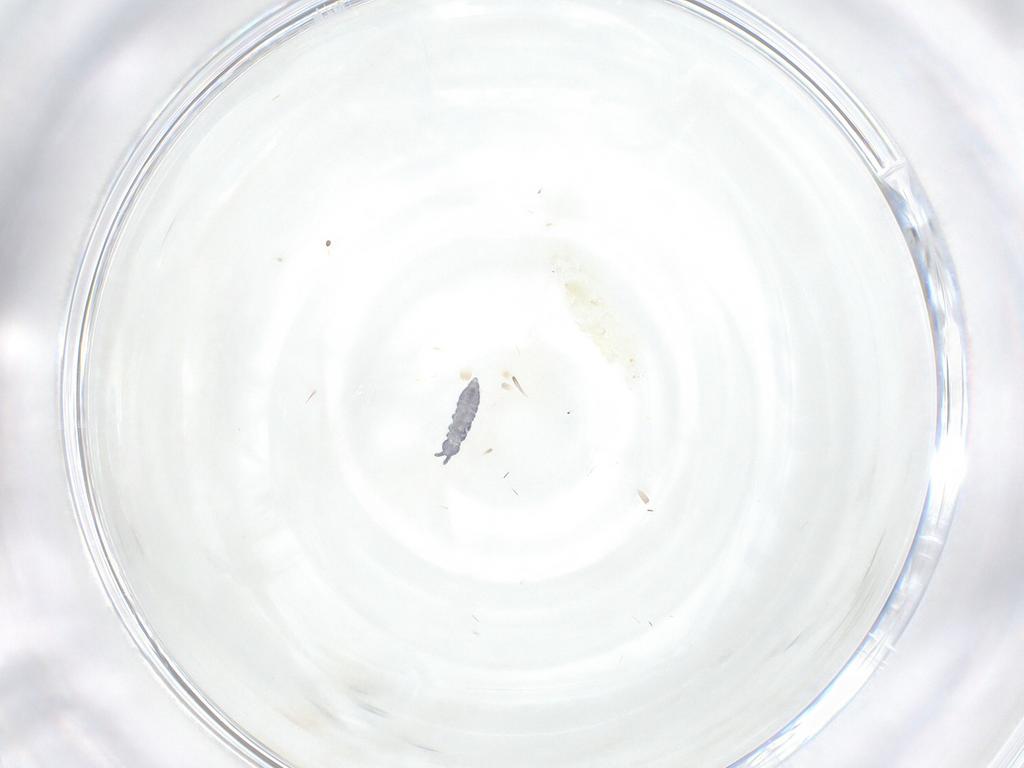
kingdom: Animalia
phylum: Arthropoda
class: Collembola
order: Poduromorpha
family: Hypogastruridae
